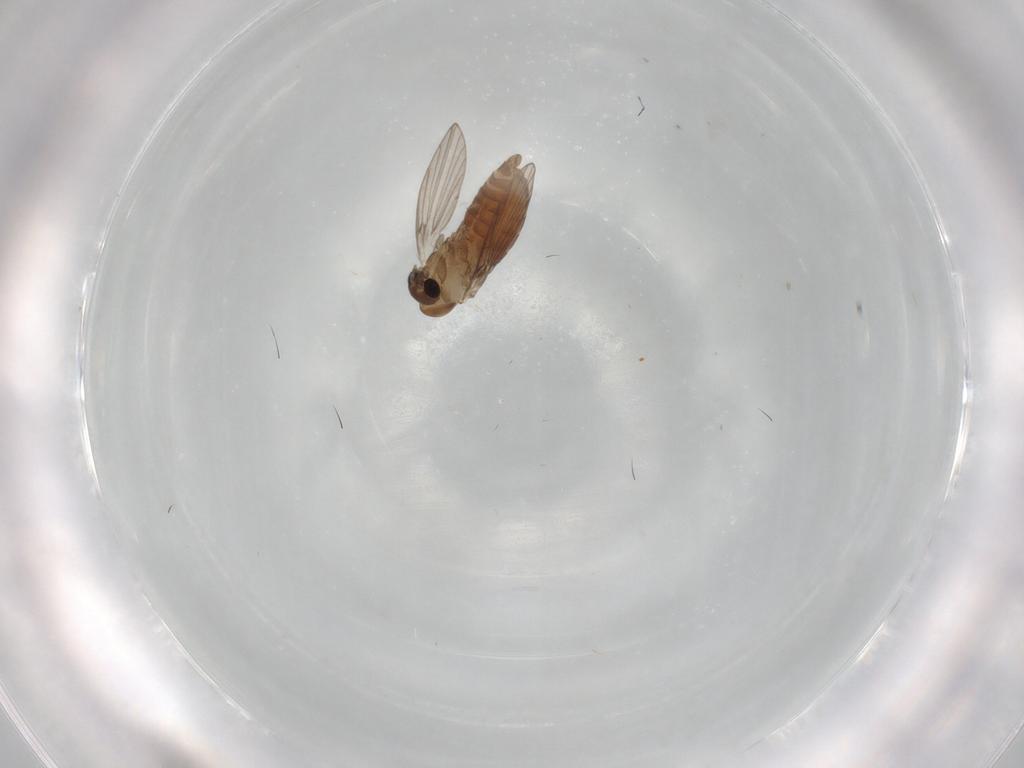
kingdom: Animalia
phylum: Arthropoda
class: Insecta
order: Diptera
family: Psychodidae
